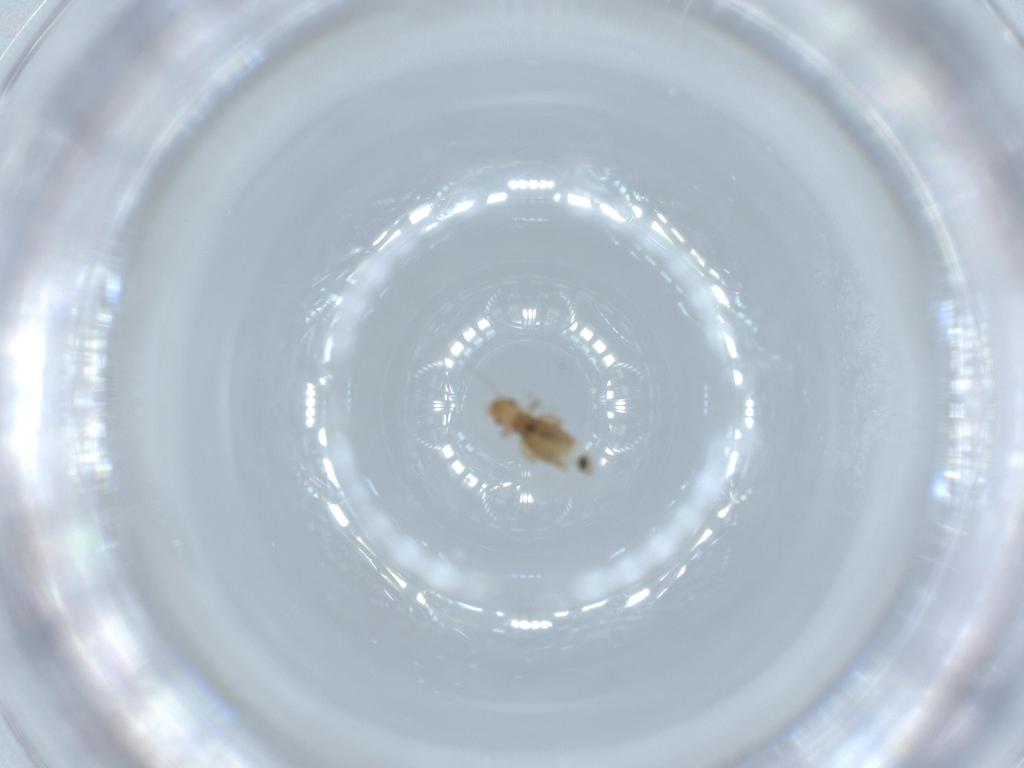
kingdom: Animalia
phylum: Arthropoda
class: Insecta
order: Psocodea
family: Liposcelididae
